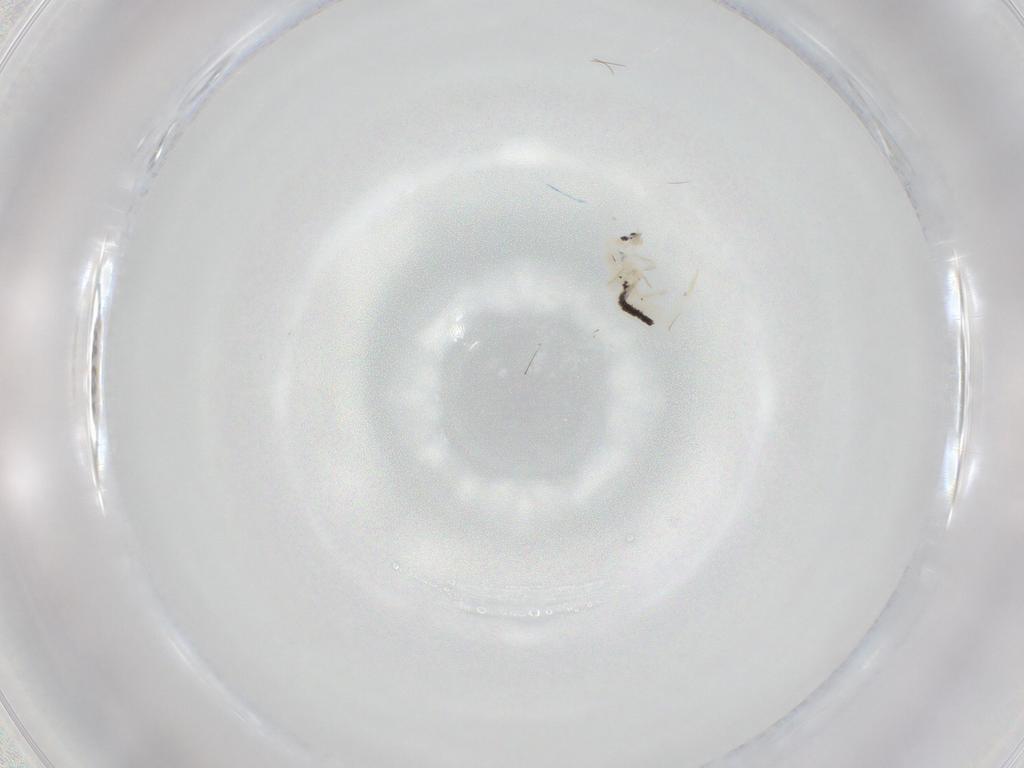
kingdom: Animalia
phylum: Arthropoda
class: Collembola
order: Entomobryomorpha
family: Entomobryidae
